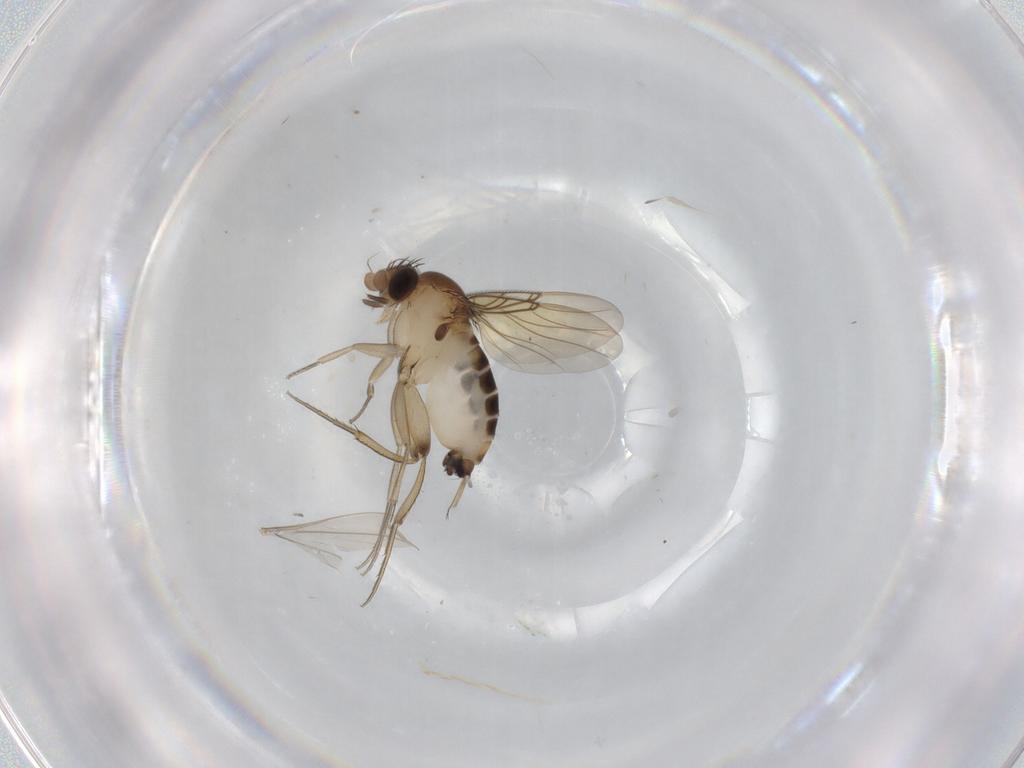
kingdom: Animalia
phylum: Arthropoda
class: Insecta
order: Diptera
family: Phoridae
